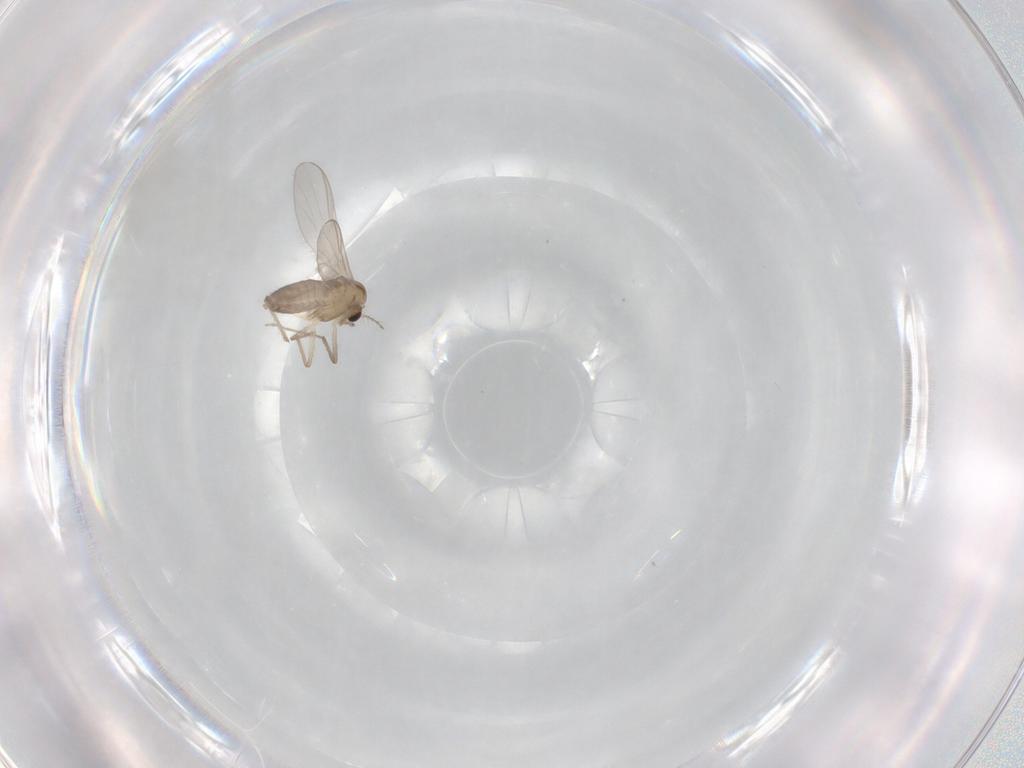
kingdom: Animalia
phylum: Arthropoda
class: Insecta
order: Diptera
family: Chironomidae
